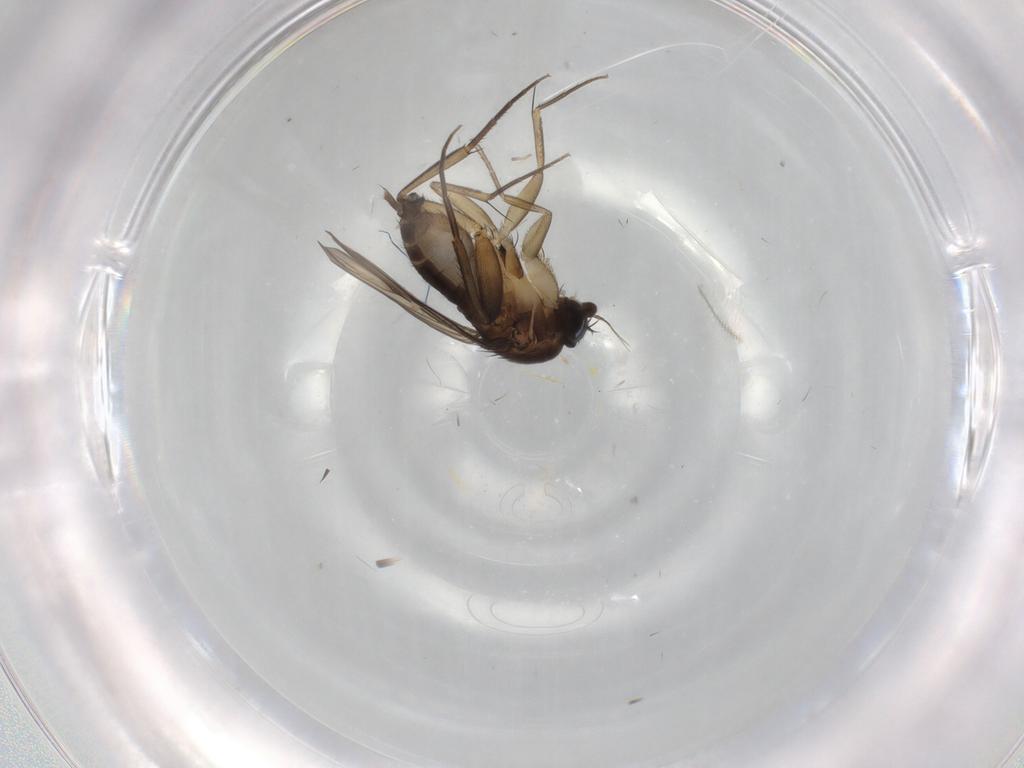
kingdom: Animalia
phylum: Arthropoda
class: Insecta
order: Diptera
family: Phoridae
